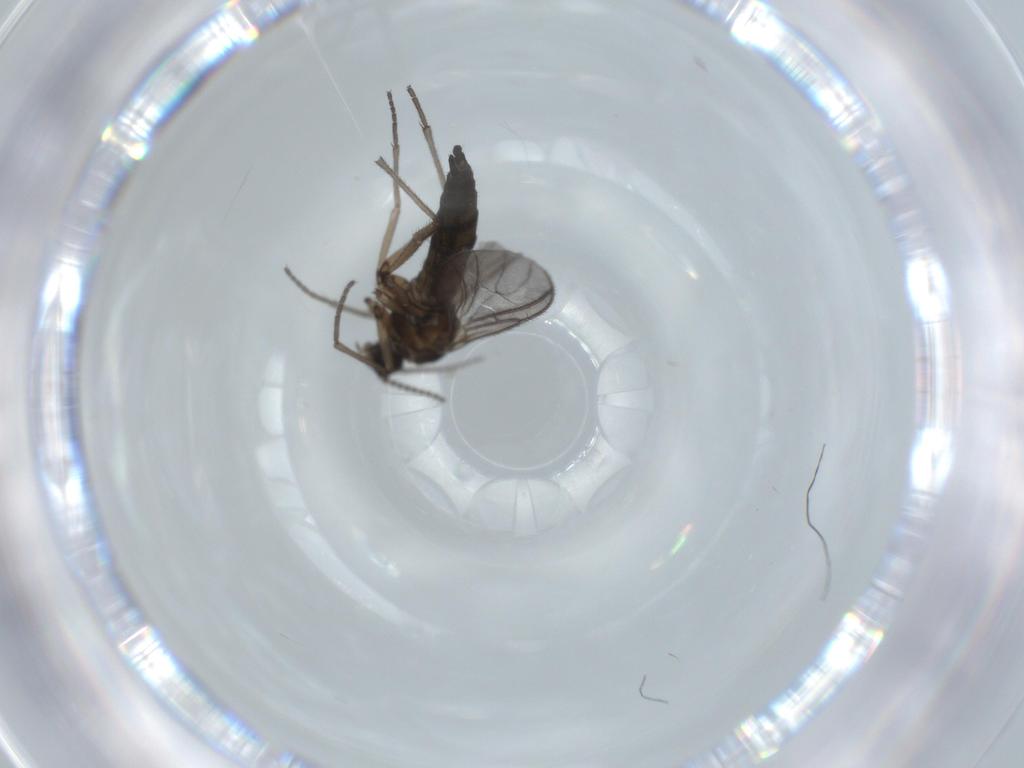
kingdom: Animalia
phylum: Arthropoda
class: Insecta
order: Diptera
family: Sciaridae
